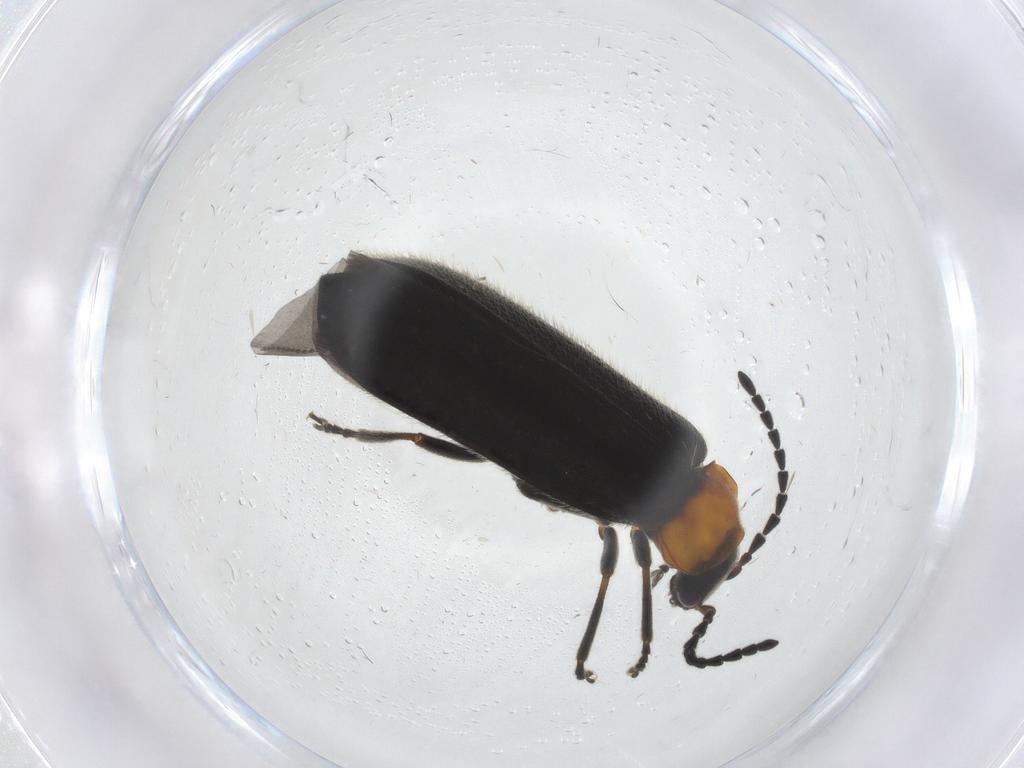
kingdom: Animalia
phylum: Arthropoda
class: Insecta
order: Coleoptera
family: Cantharidae
